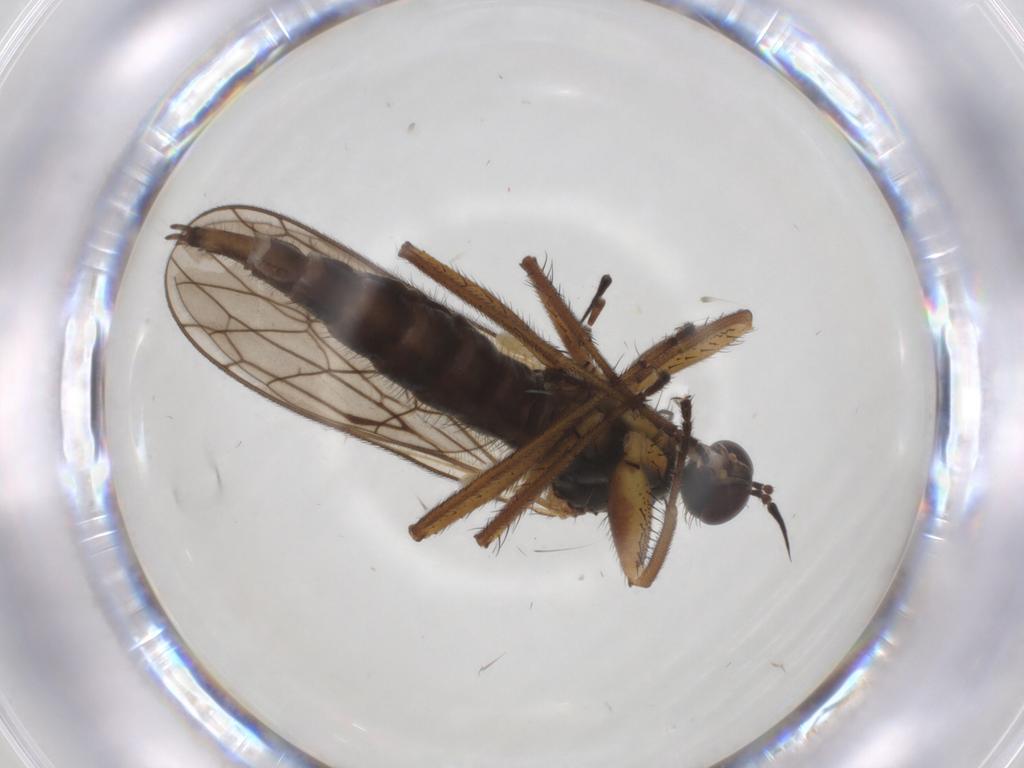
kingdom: Animalia
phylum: Arthropoda
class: Insecta
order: Diptera
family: Empididae
